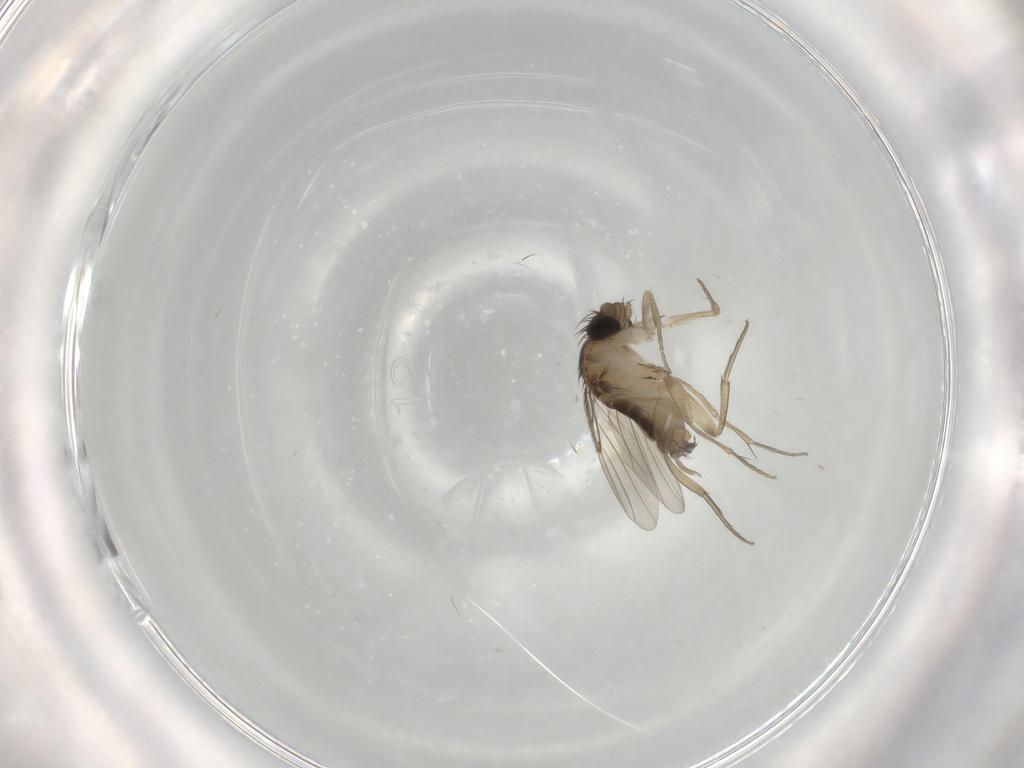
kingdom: Animalia
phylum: Arthropoda
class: Insecta
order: Diptera
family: Phoridae
